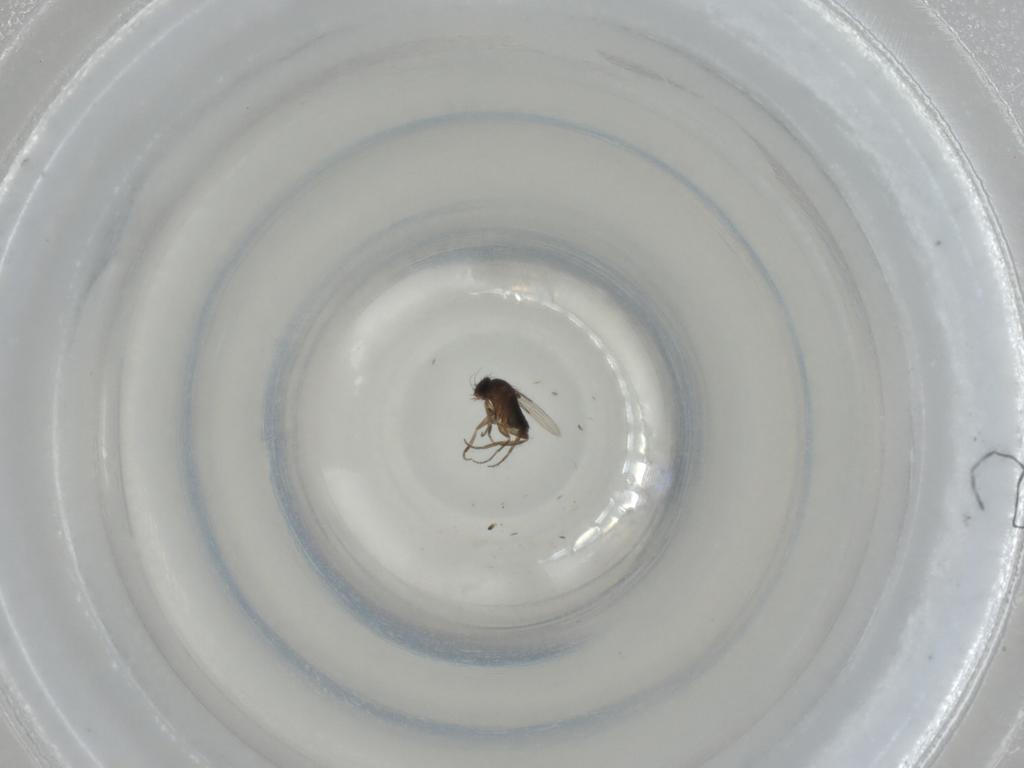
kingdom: Animalia
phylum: Arthropoda
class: Insecta
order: Diptera
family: Phoridae
